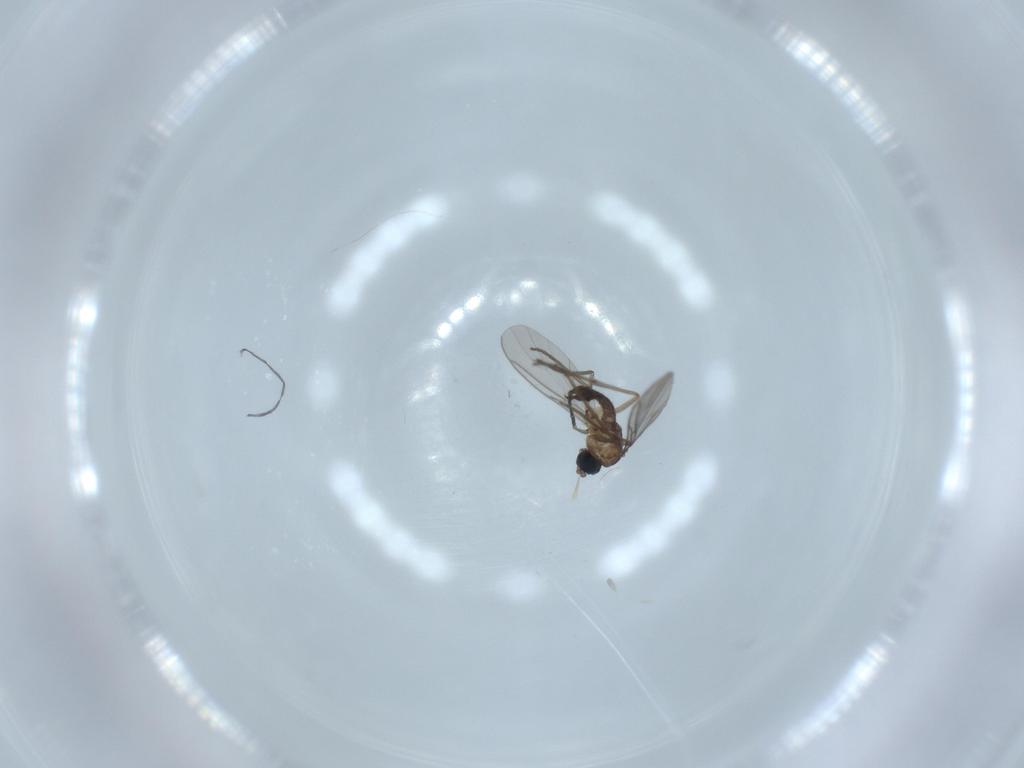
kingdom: Animalia
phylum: Arthropoda
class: Insecta
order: Diptera
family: Sciaridae
